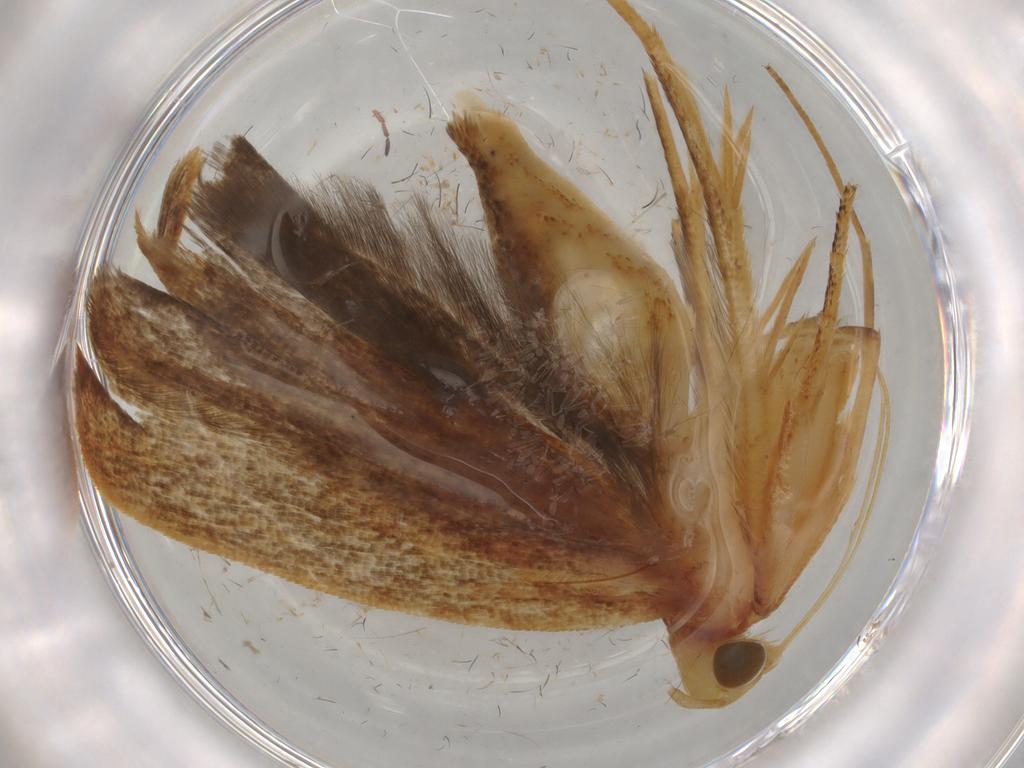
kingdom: Animalia
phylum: Arthropoda
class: Insecta
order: Lepidoptera
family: Gelechiidae
